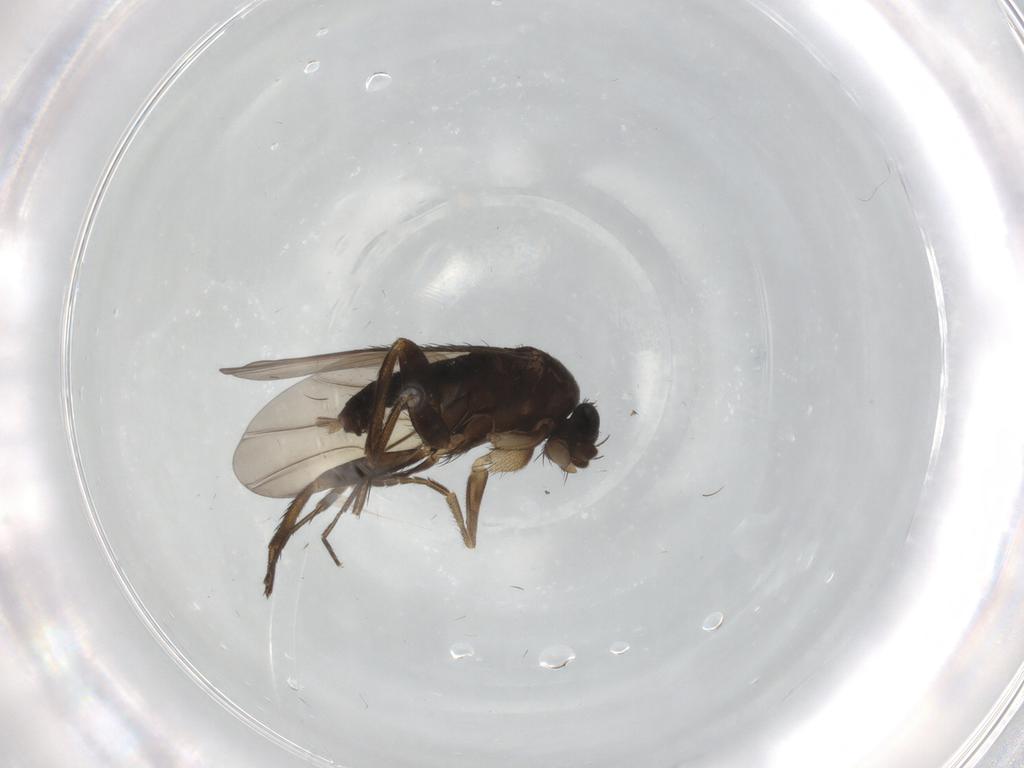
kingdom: Animalia
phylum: Arthropoda
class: Insecta
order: Diptera
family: Phoridae
